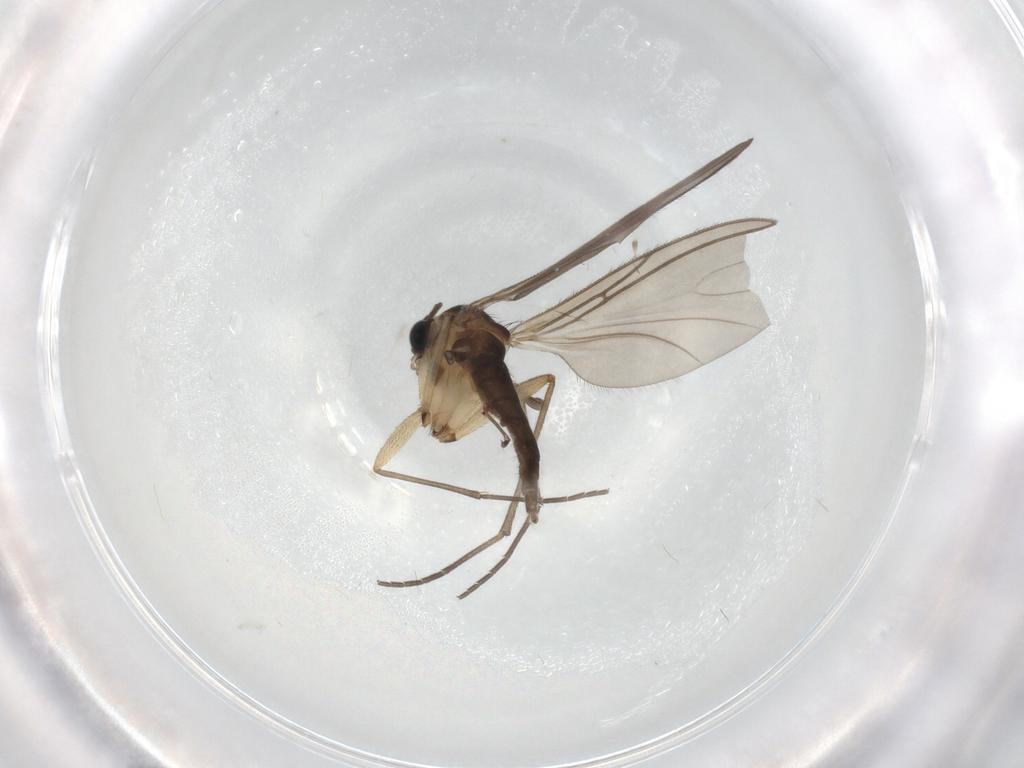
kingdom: Animalia
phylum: Arthropoda
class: Insecta
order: Diptera
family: Sciaridae
